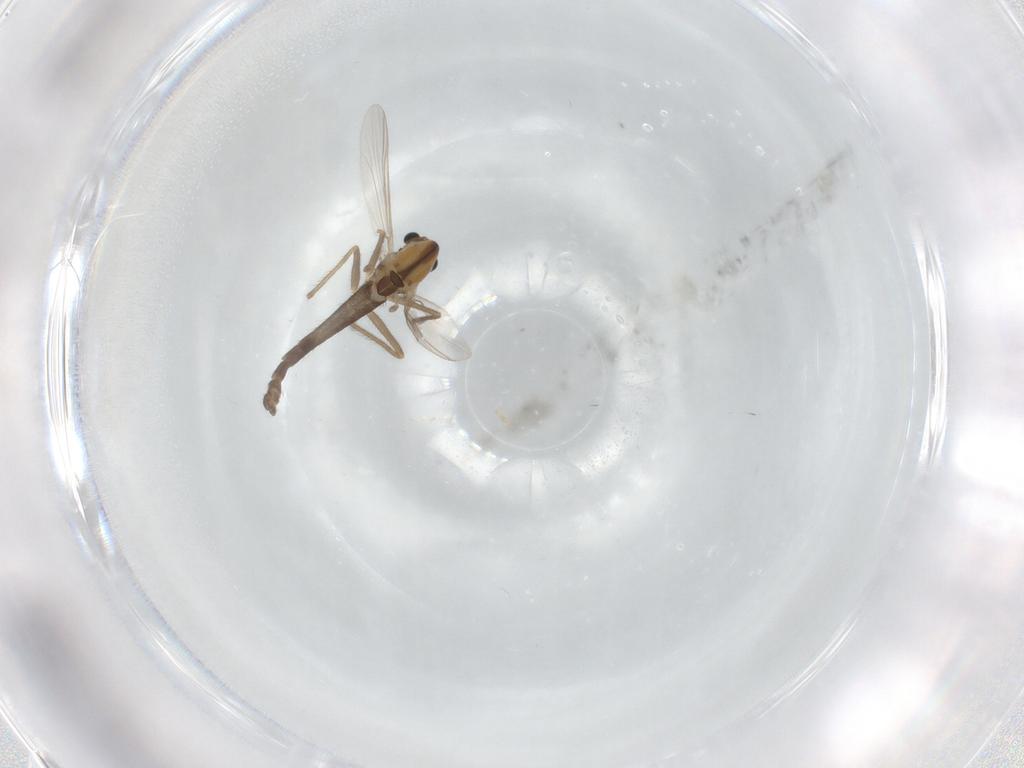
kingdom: Animalia
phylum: Arthropoda
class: Insecta
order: Diptera
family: Chironomidae
